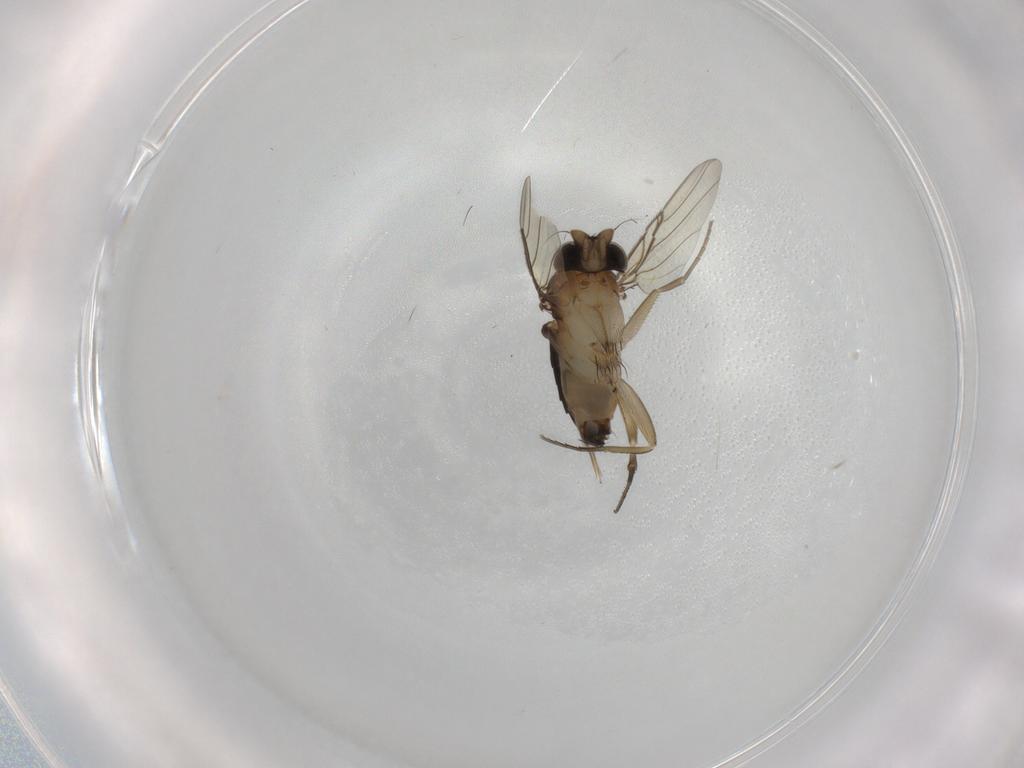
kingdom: Animalia
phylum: Arthropoda
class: Insecta
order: Diptera
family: Phoridae
